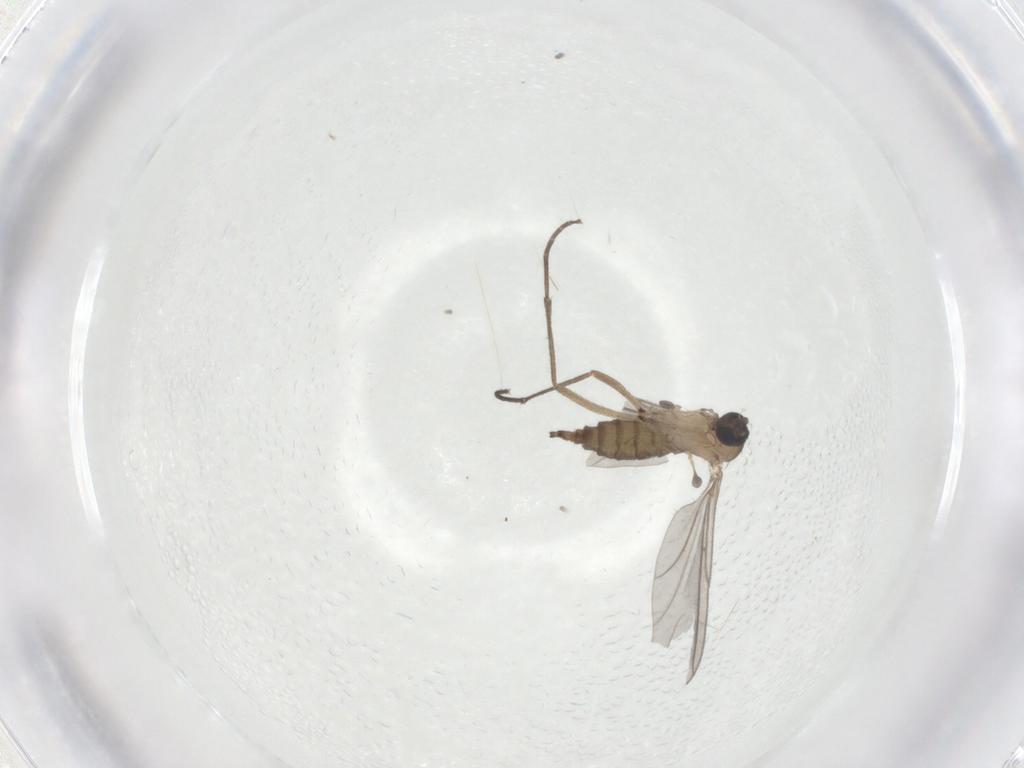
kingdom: Animalia
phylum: Arthropoda
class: Insecta
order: Diptera
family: Sciaridae
